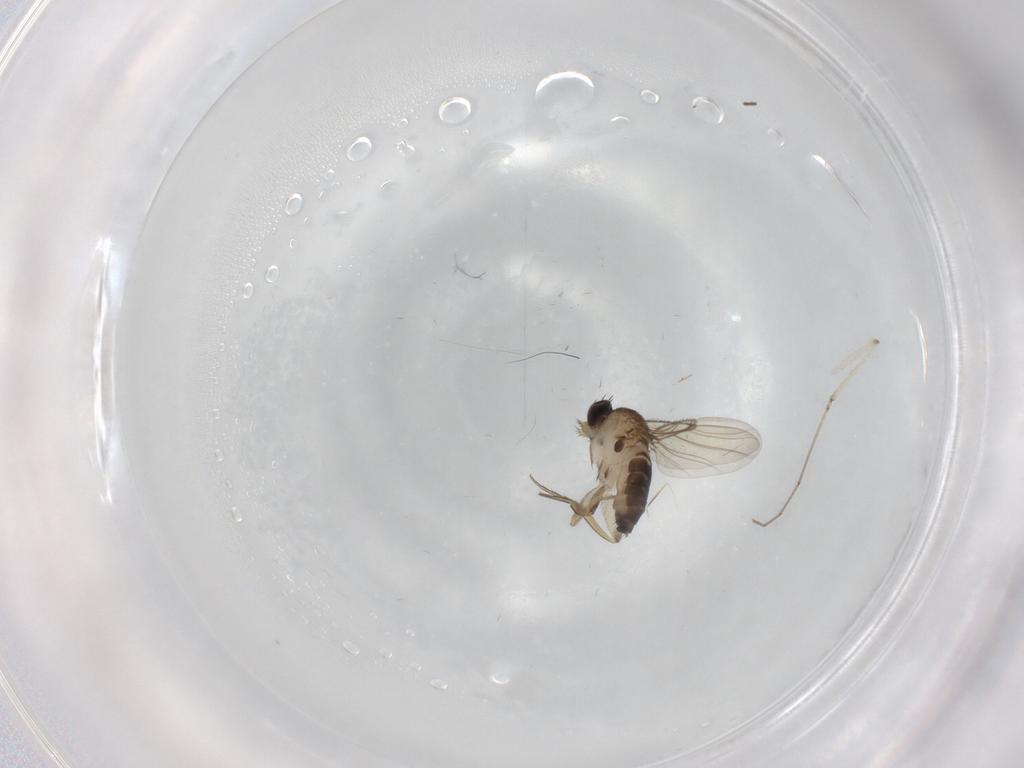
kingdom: Animalia
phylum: Arthropoda
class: Insecta
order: Diptera
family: Phoridae
